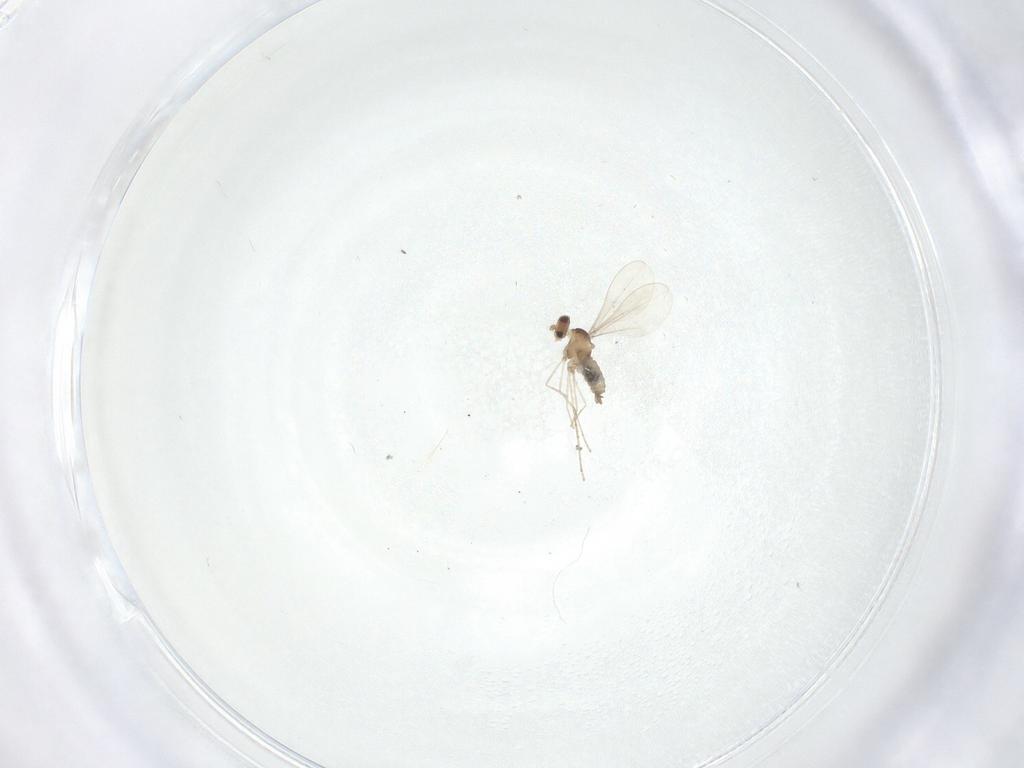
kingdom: Animalia
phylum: Arthropoda
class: Insecta
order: Diptera
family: Cecidomyiidae
